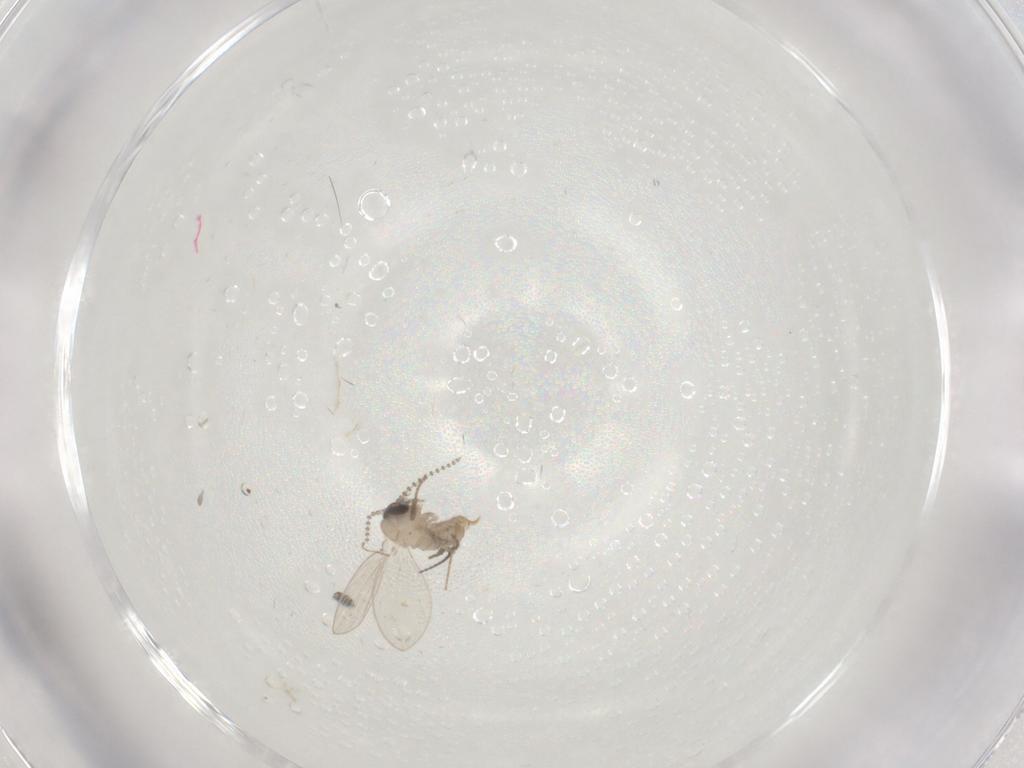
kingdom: Animalia
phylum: Arthropoda
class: Insecta
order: Diptera
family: Psychodidae
